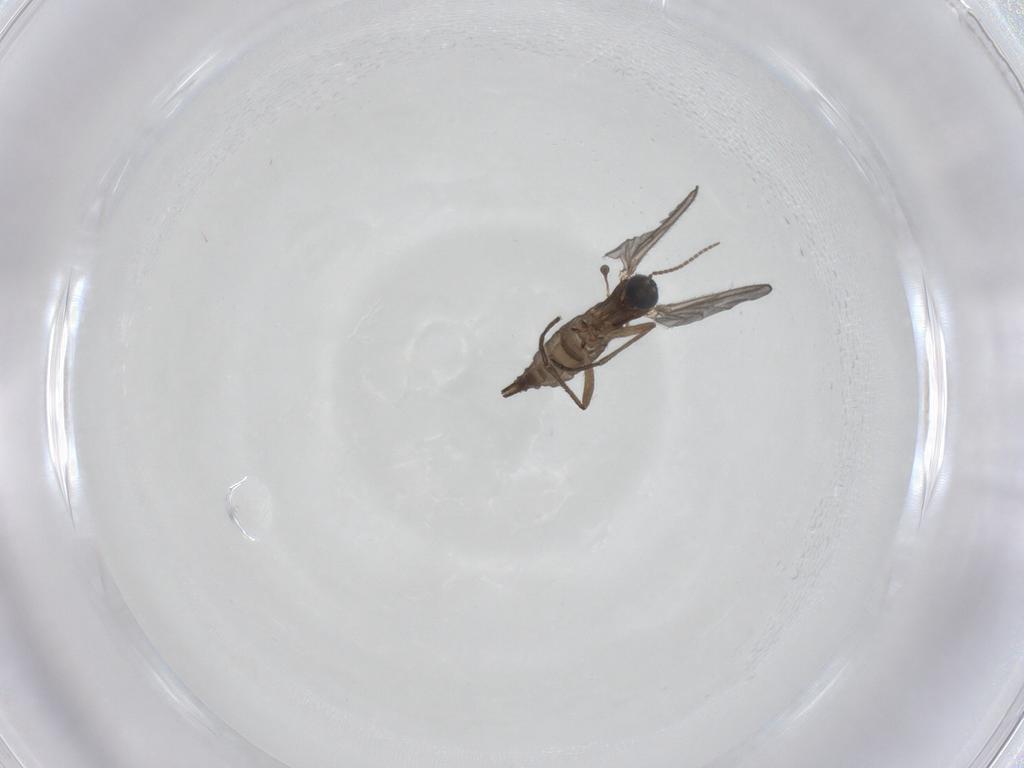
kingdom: Animalia
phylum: Arthropoda
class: Insecta
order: Diptera
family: Sciaridae
